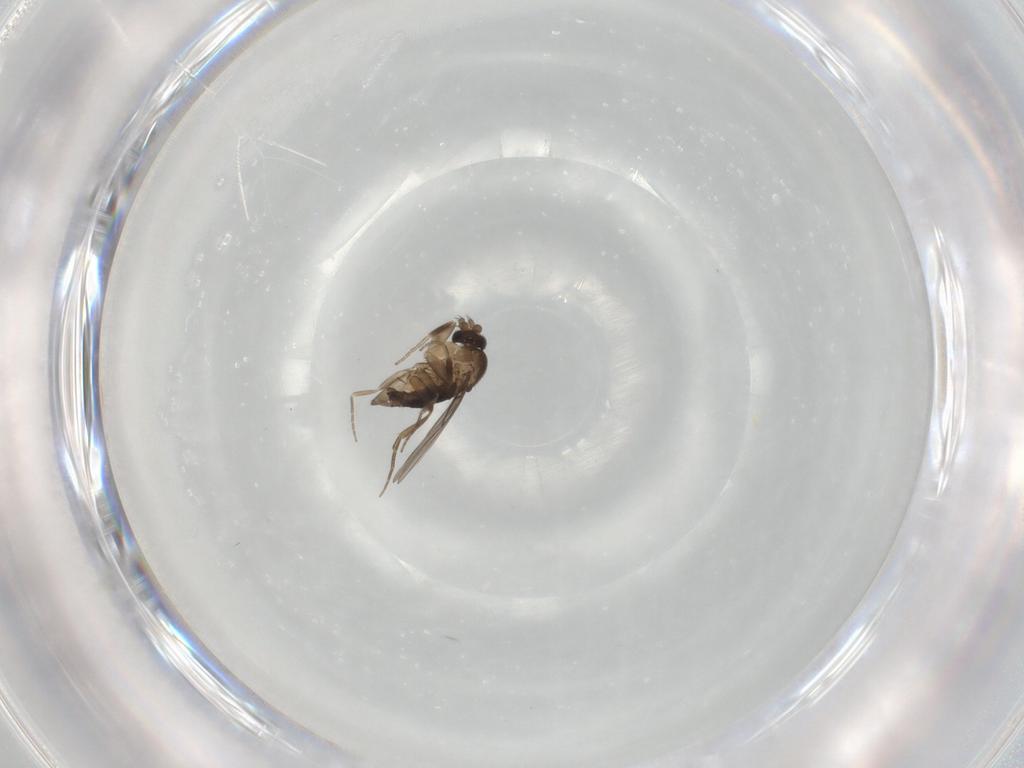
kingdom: Animalia
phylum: Arthropoda
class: Insecta
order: Diptera
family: Phoridae
